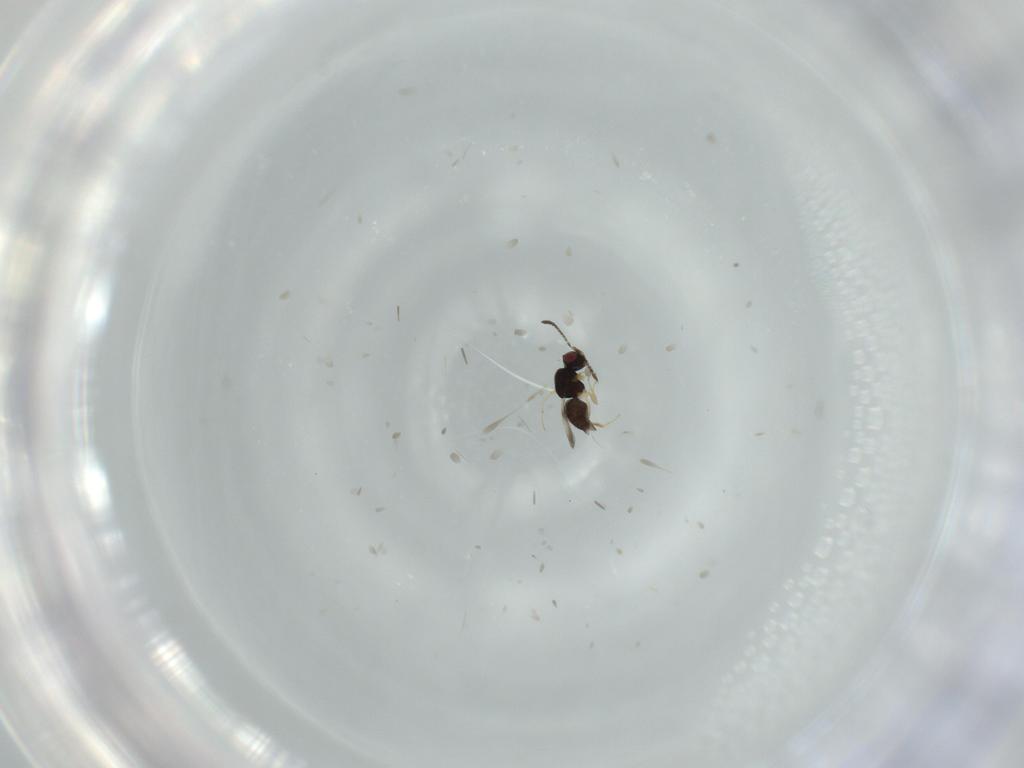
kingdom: Animalia
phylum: Arthropoda
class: Insecta
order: Hymenoptera
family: Formicidae
